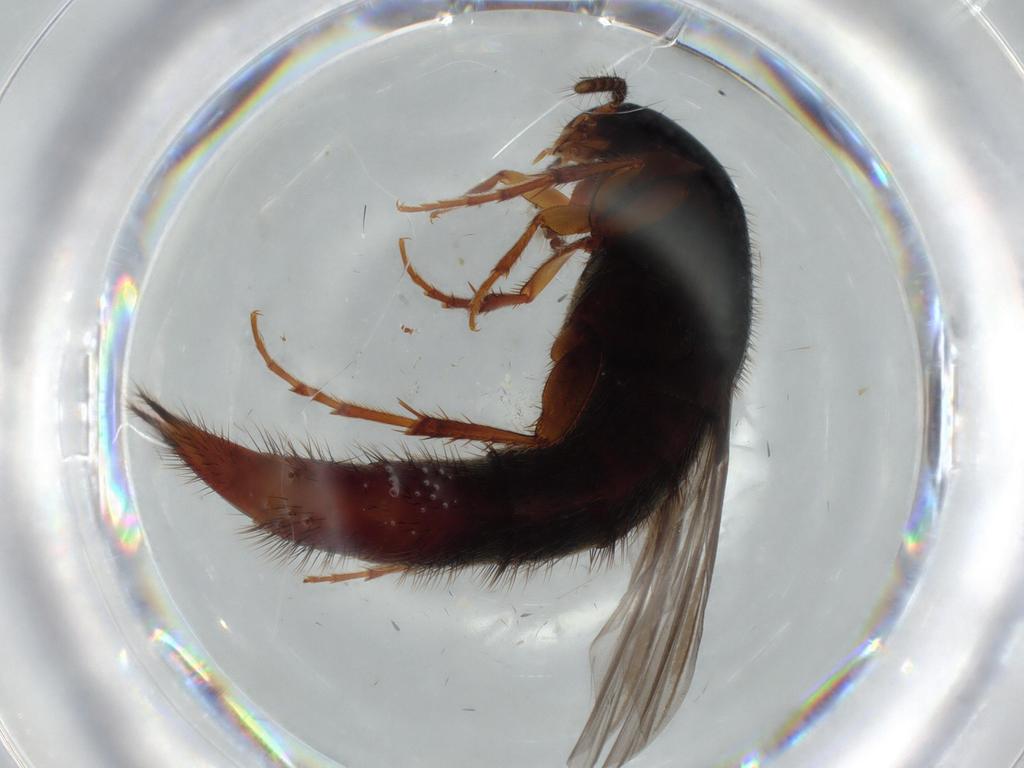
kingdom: Animalia
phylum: Arthropoda
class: Insecta
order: Coleoptera
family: Staphylinidae
